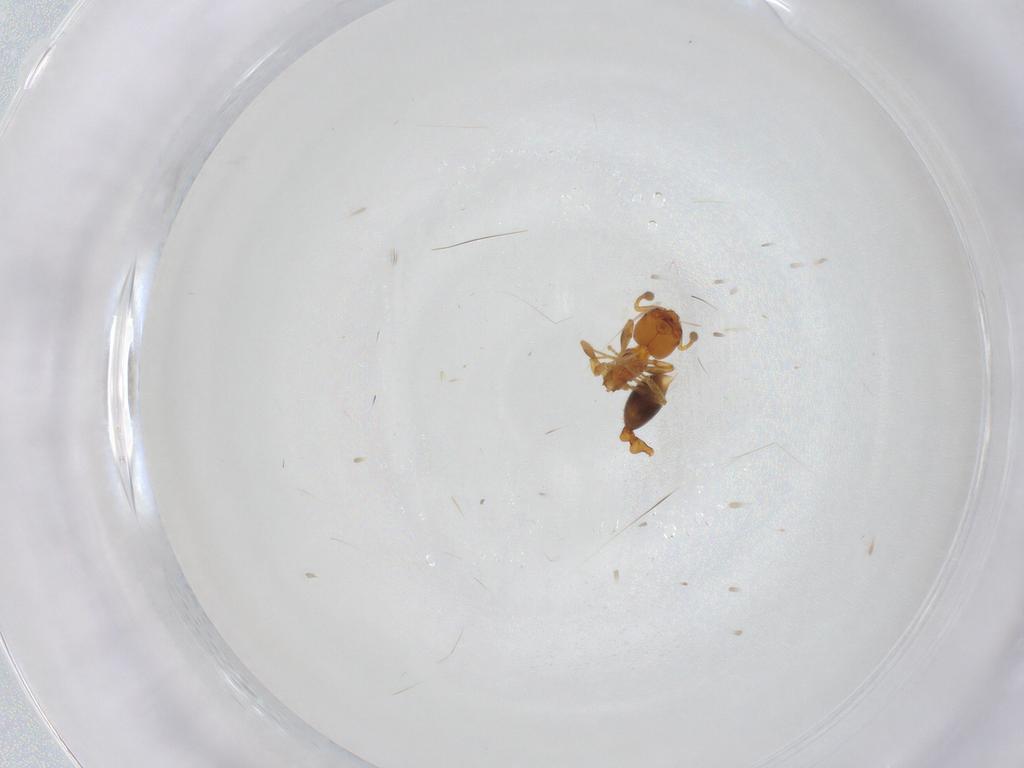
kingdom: Animalia
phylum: Arthropoda
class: Insecta
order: Hymenoptera
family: Formicidae
